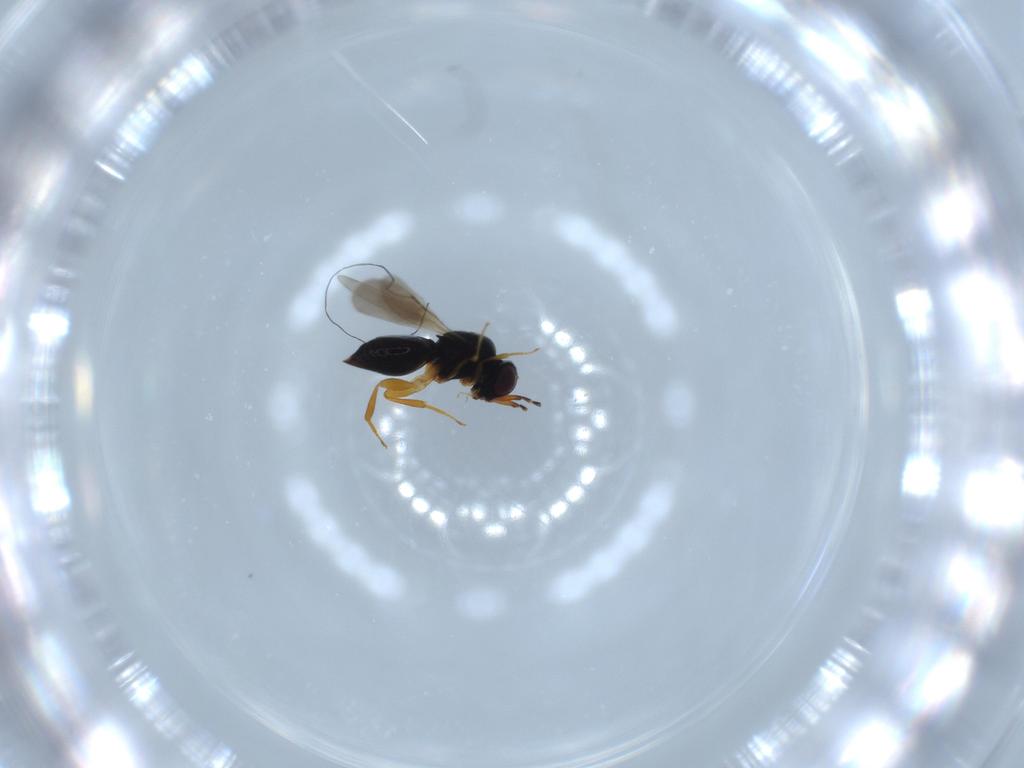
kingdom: Animalia
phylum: Arthropoda
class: Insecta
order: Hymenoptera
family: Ceraphronidae
